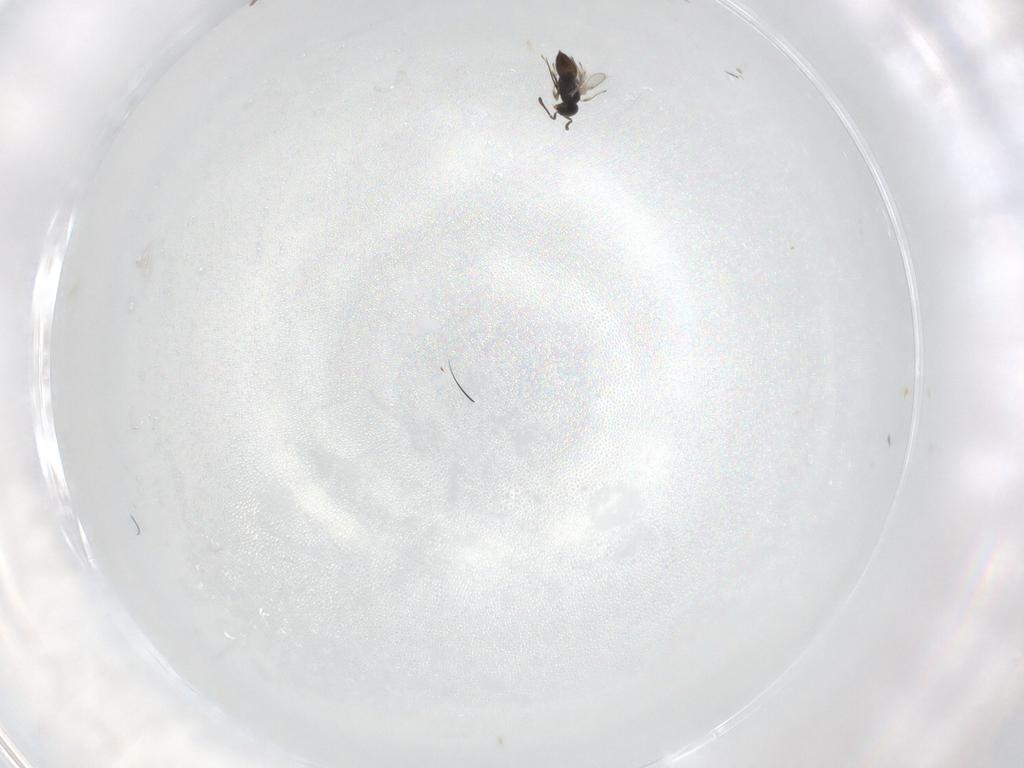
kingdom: Animalia
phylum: Arthropoda
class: Insecta
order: Hymenoptera
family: Scelionidae
